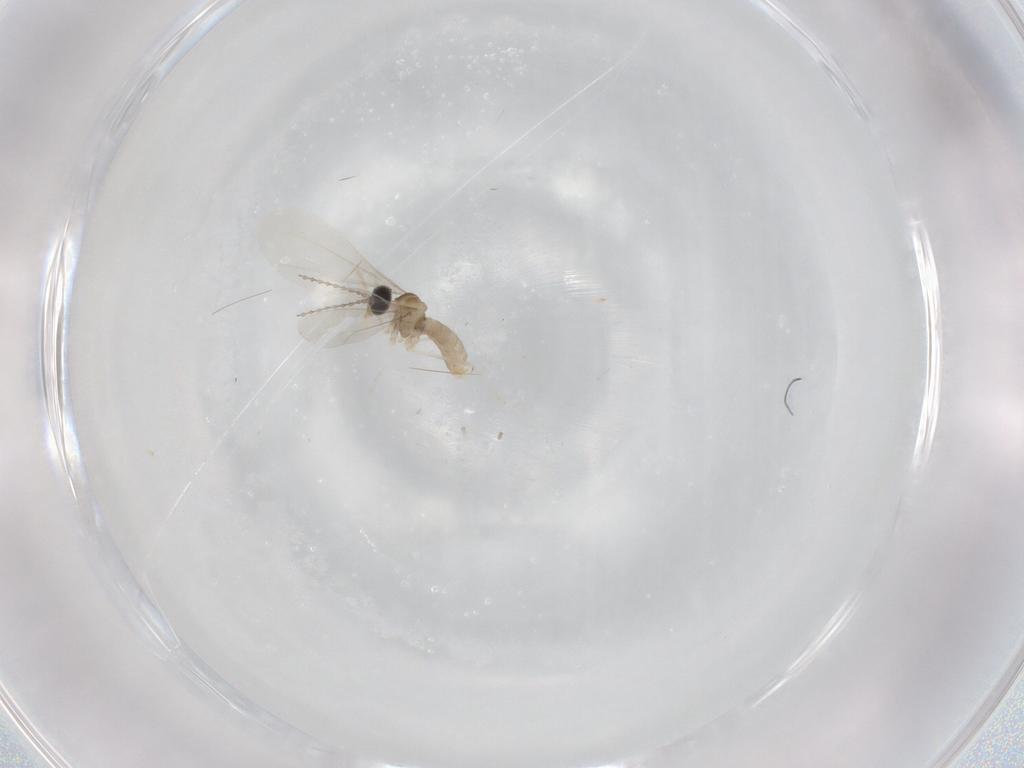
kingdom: Animalia
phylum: Arthropoda
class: Insecta
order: Diptera
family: Cecidomyiidae
